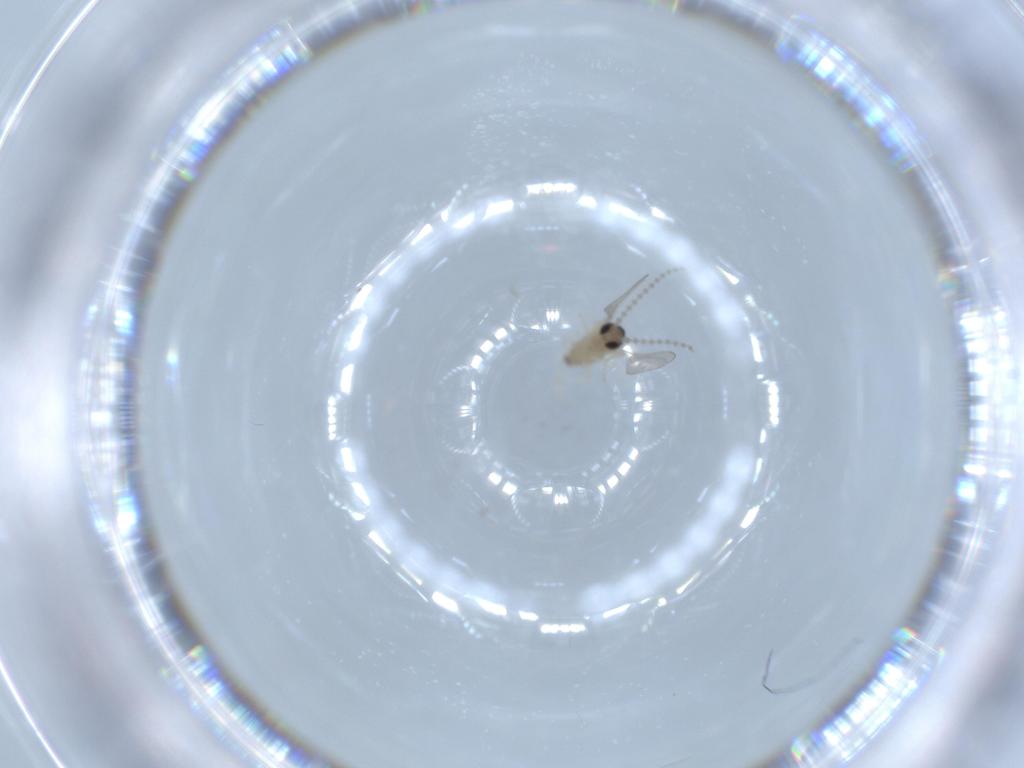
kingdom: Animalia
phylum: Arthropoda
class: Insecta
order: Diptera
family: Cecidomyiidae
